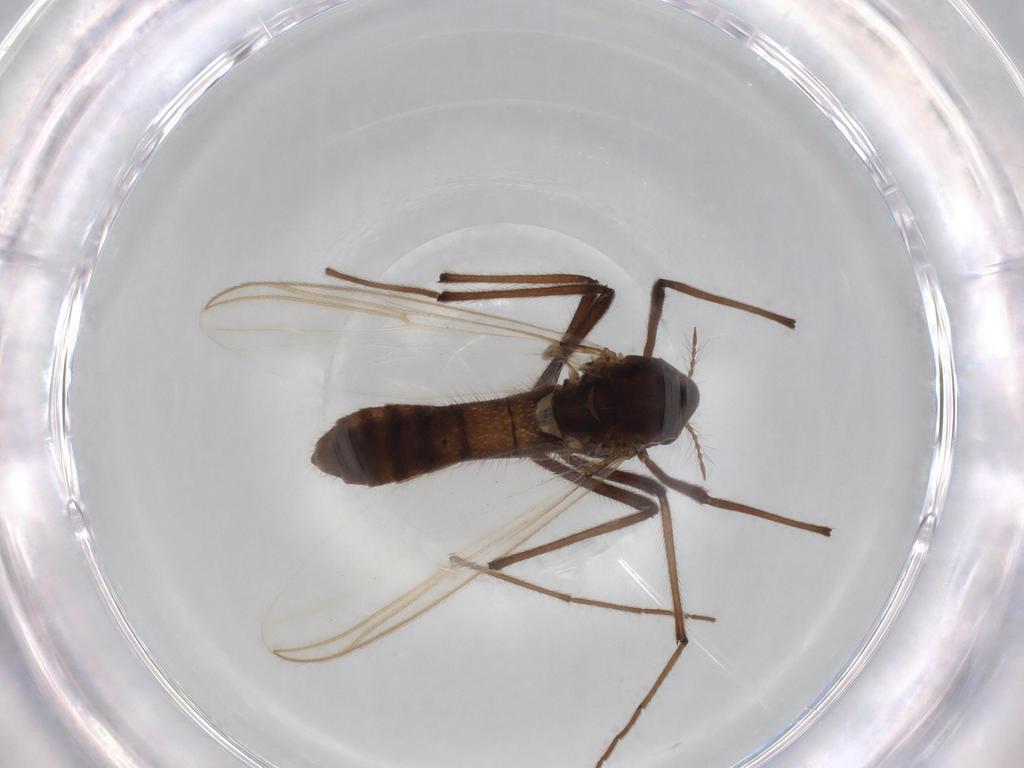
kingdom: Animalia
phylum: Arthropoda
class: Insecta
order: Diptera
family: Chironomidae
